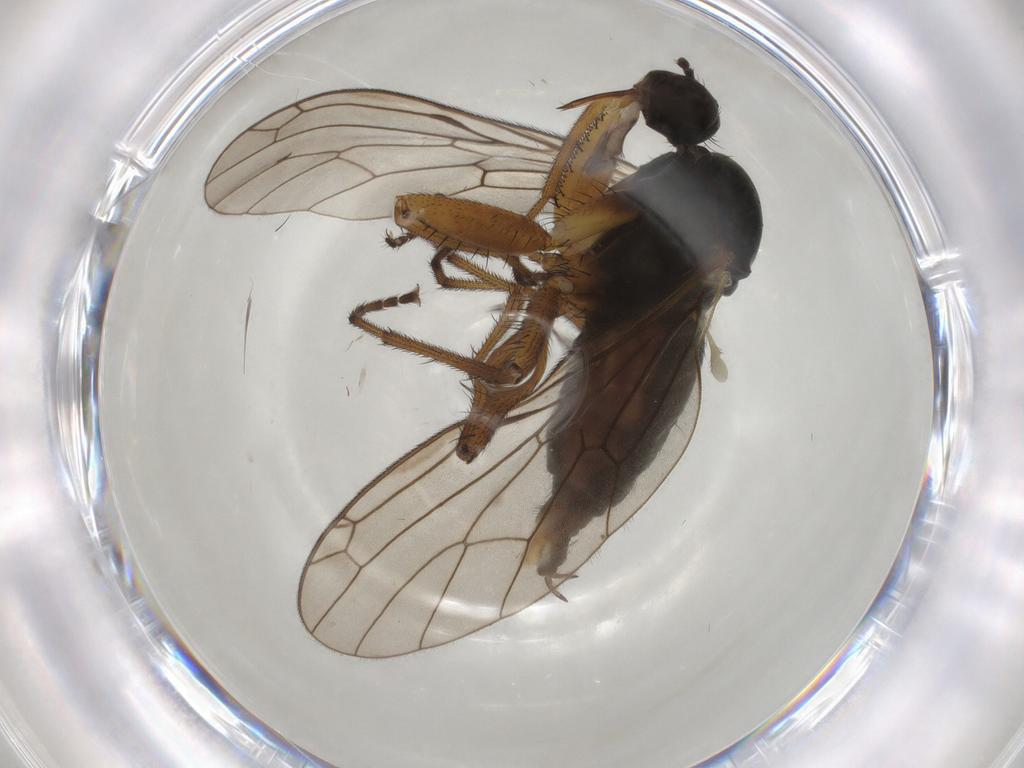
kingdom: Animalia
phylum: Arthropoda
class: Insecta
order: Diptera
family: Empididae
